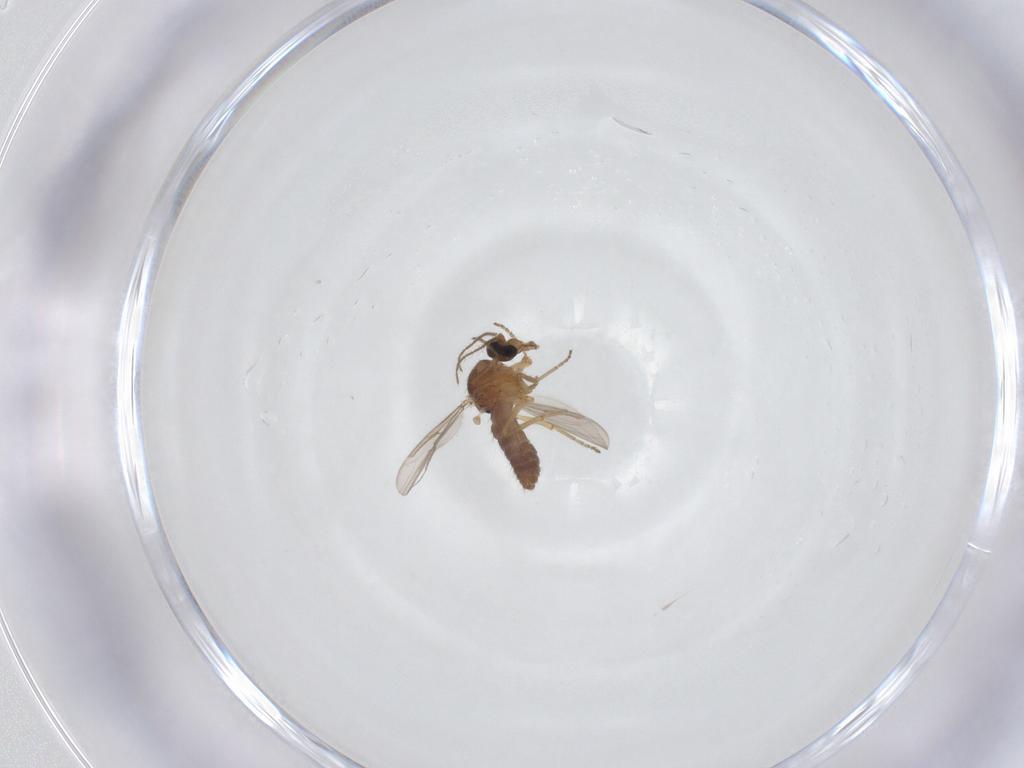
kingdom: Animalia
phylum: Arthropoda
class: Insecta
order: Diptera
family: Ceratopogonidae
